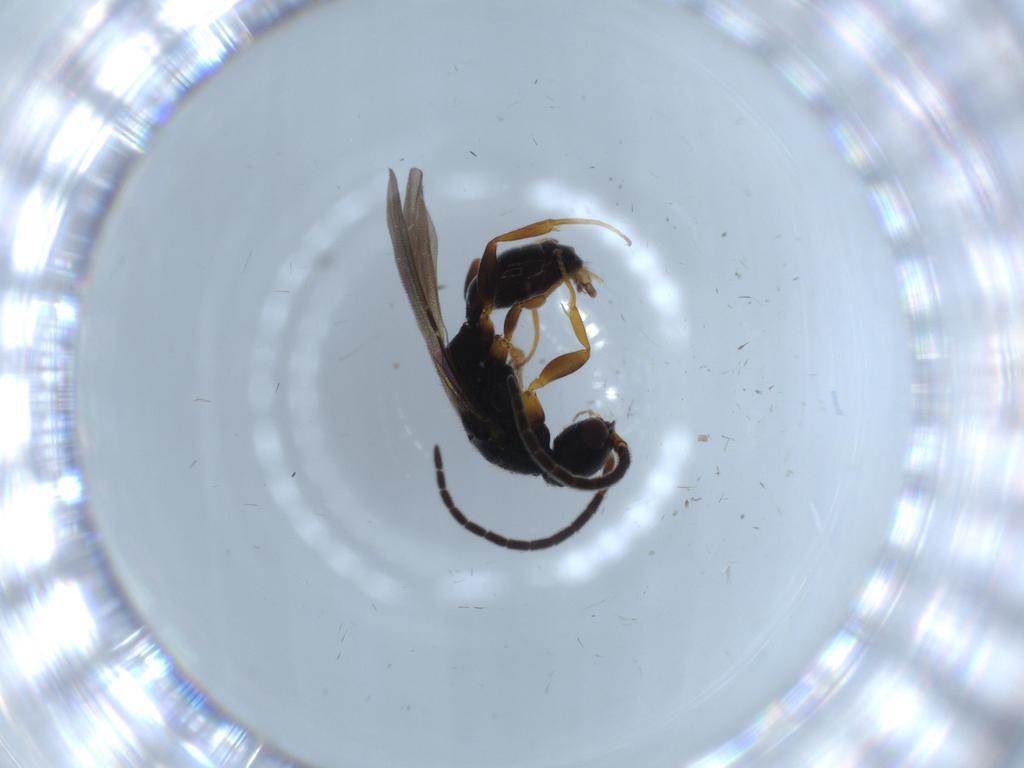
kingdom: Animalia
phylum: Arthropoda
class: Insecta
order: Hymenoptera
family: Bethylidae
